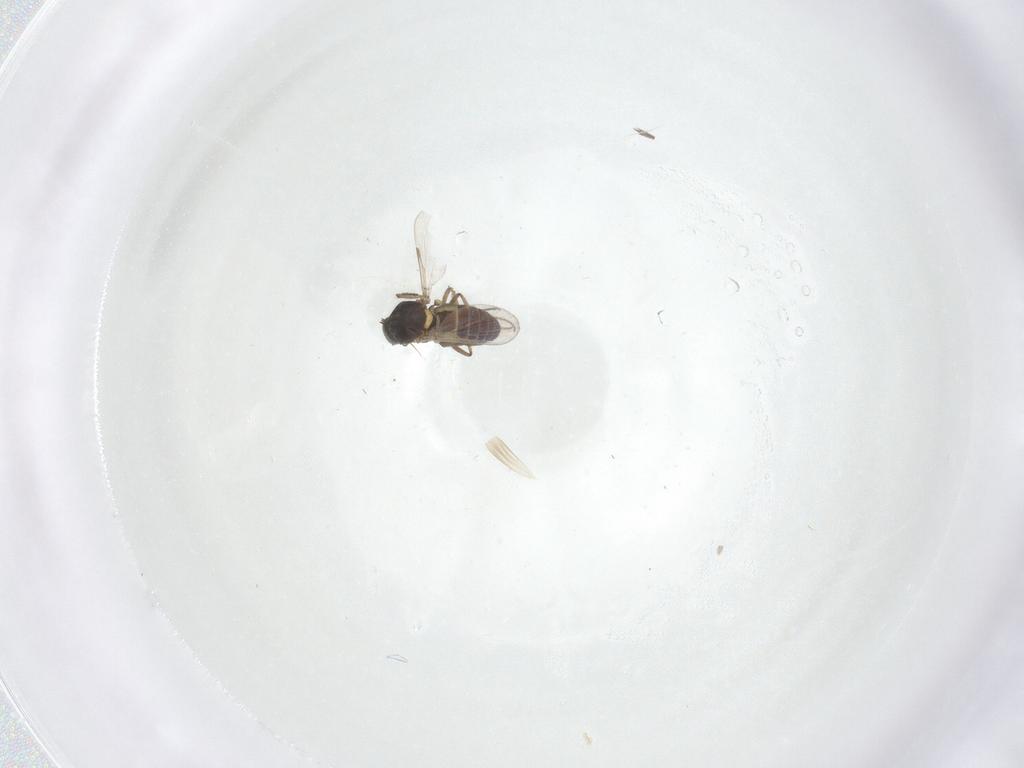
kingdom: Animalia
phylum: Arthropoda
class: Insecta
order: Diptera
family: Ceratopogonidae
